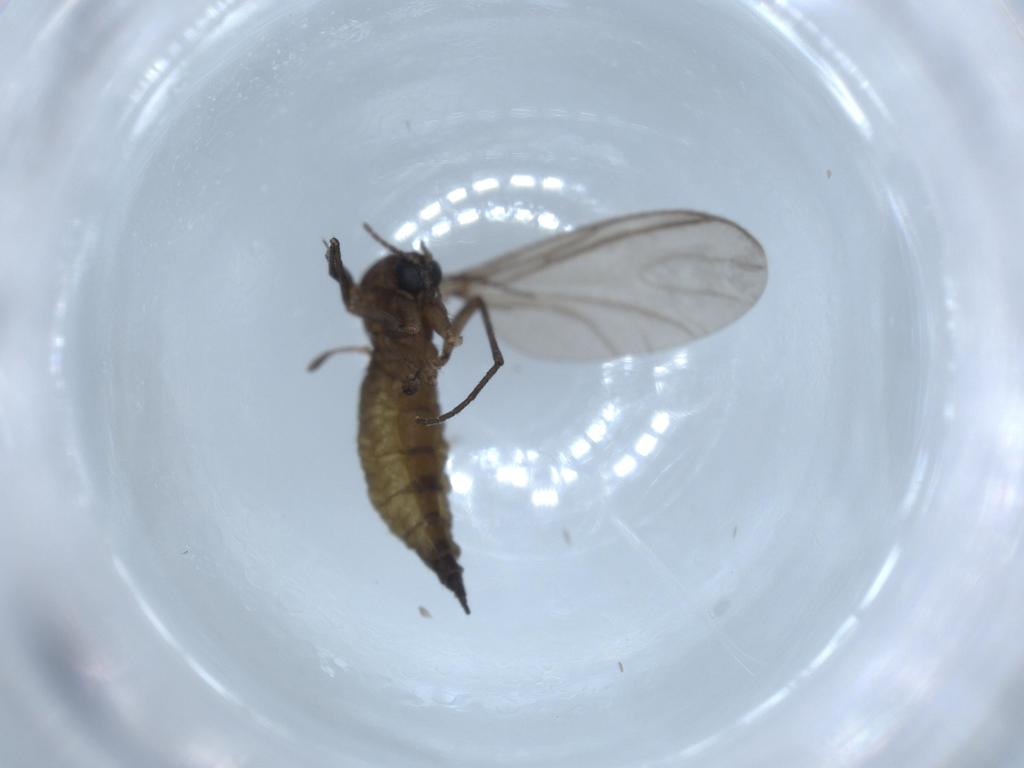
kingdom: Animalia
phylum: Arthropoda
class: Insecta
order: Diptera
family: Sciaridae
